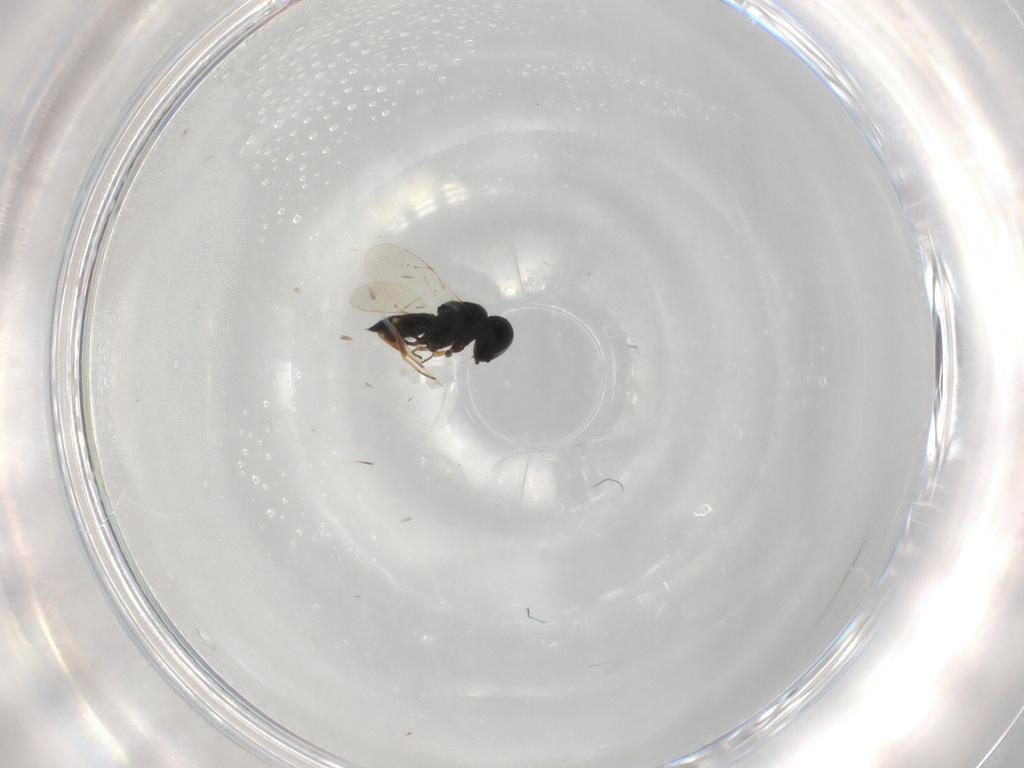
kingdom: Animalia
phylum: Arthropoda
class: Insecta
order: Hymenoptera
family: Scelionidae
